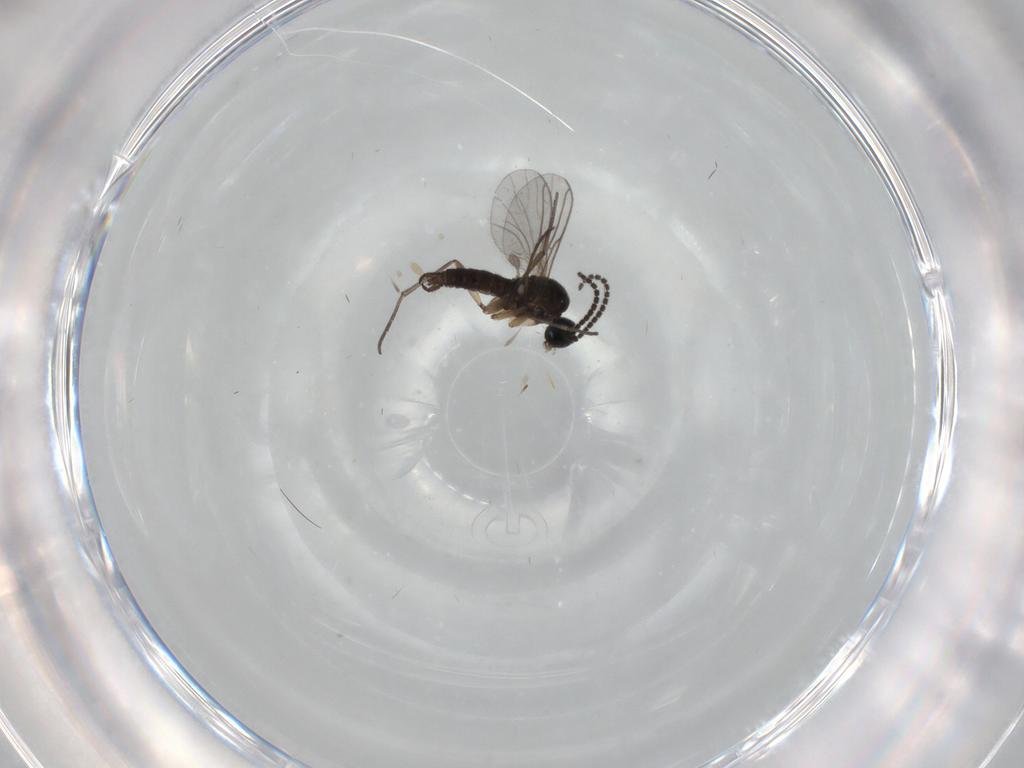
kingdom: Animalia
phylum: Arthropoda
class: Insecta
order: Diptera
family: Sciaridae
